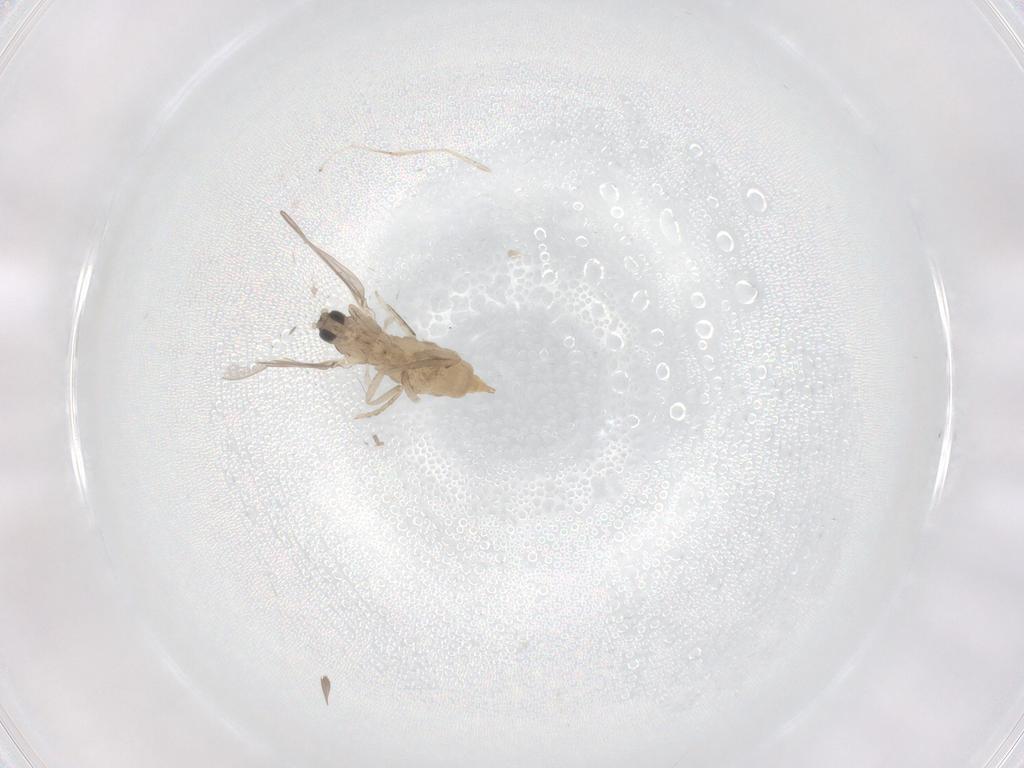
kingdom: Animalia
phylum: Arthropoda
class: Insecta
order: Diptera
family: Cecidomyiidae
